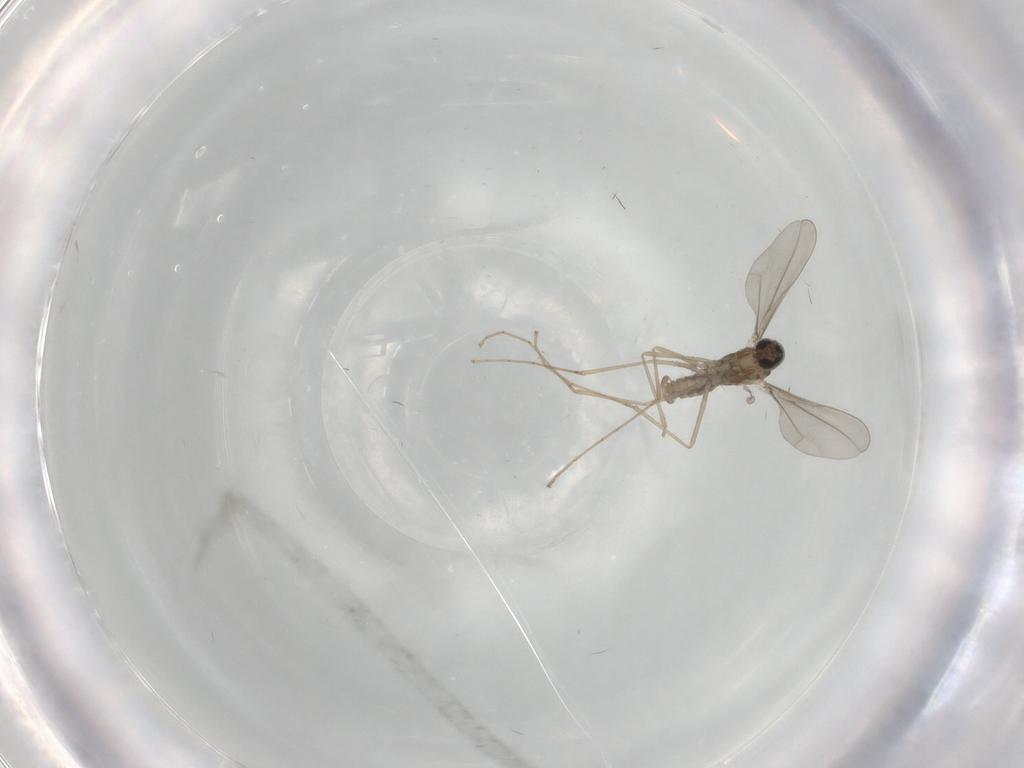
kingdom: Animalia
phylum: Arthropoda
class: Insecta
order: Diptera
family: Cecidomyiidae
